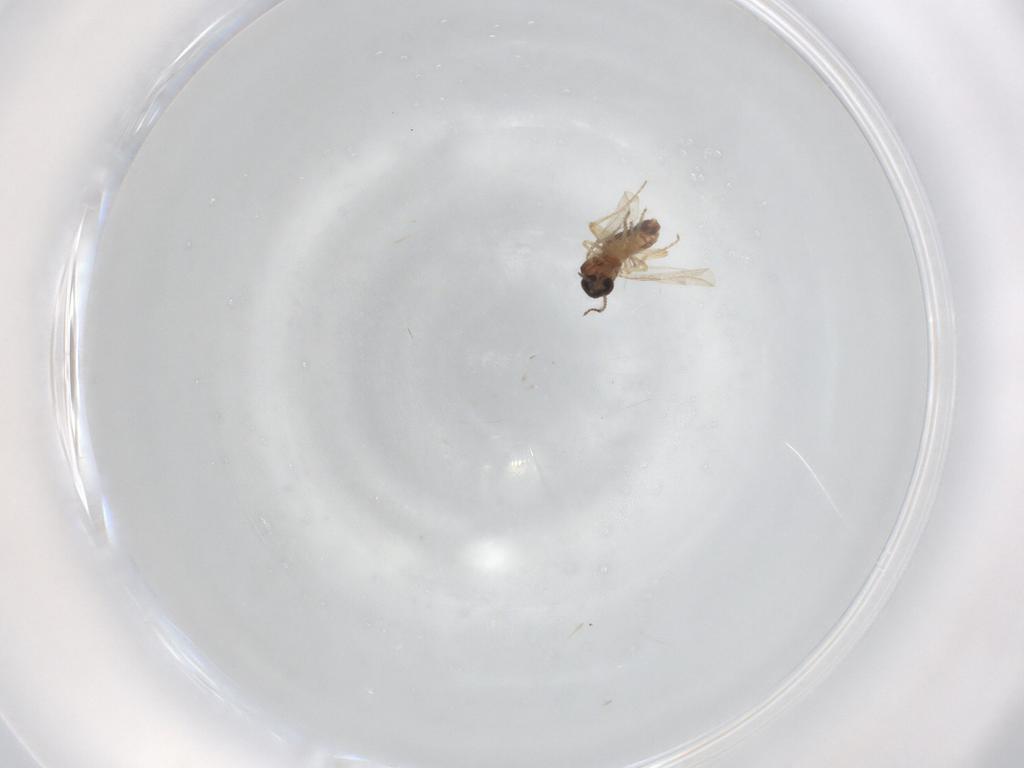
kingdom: Animalia
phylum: Arthropoda
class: Insecta
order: Diptera
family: Ceratopogonidae
